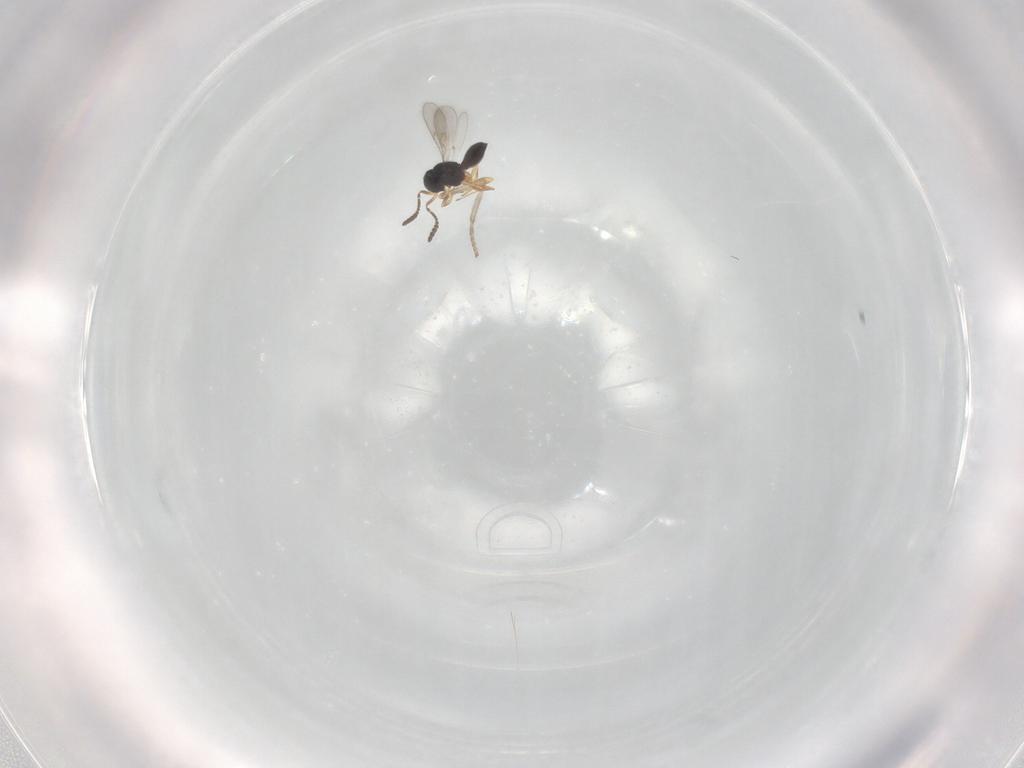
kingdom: Animalia
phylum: Arthropoda
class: Insecta
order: Hymenoptera
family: Scelionidae
